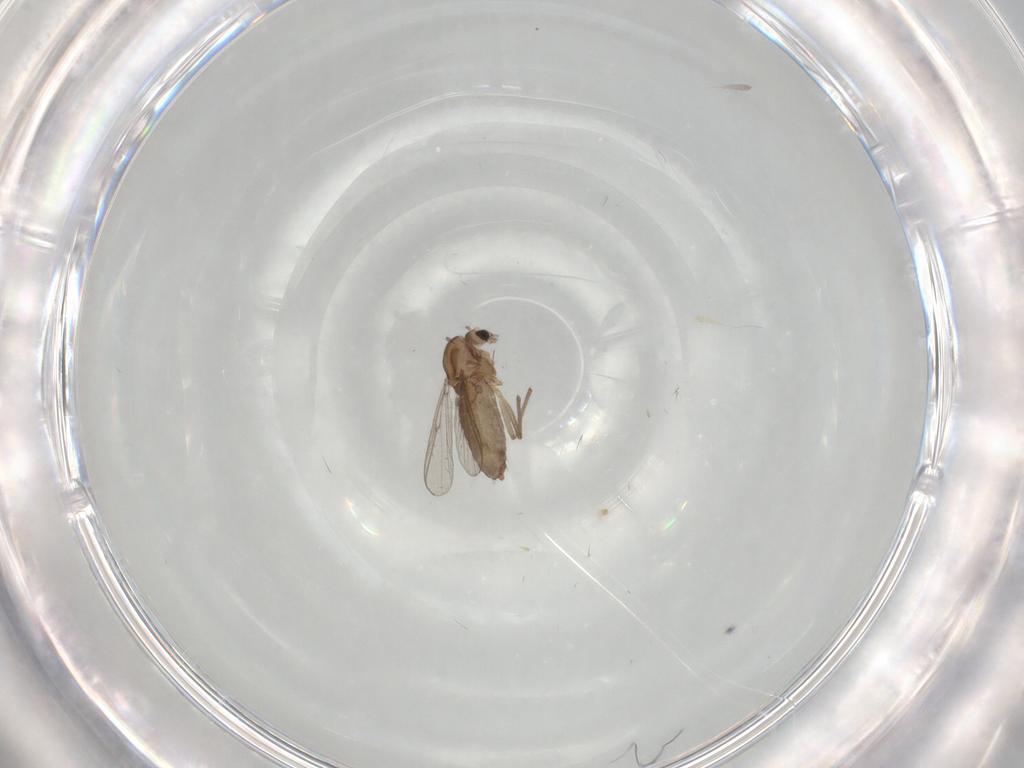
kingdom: Animalia
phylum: Arthropoda
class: Insecta
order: Diptera
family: Chironomidae
